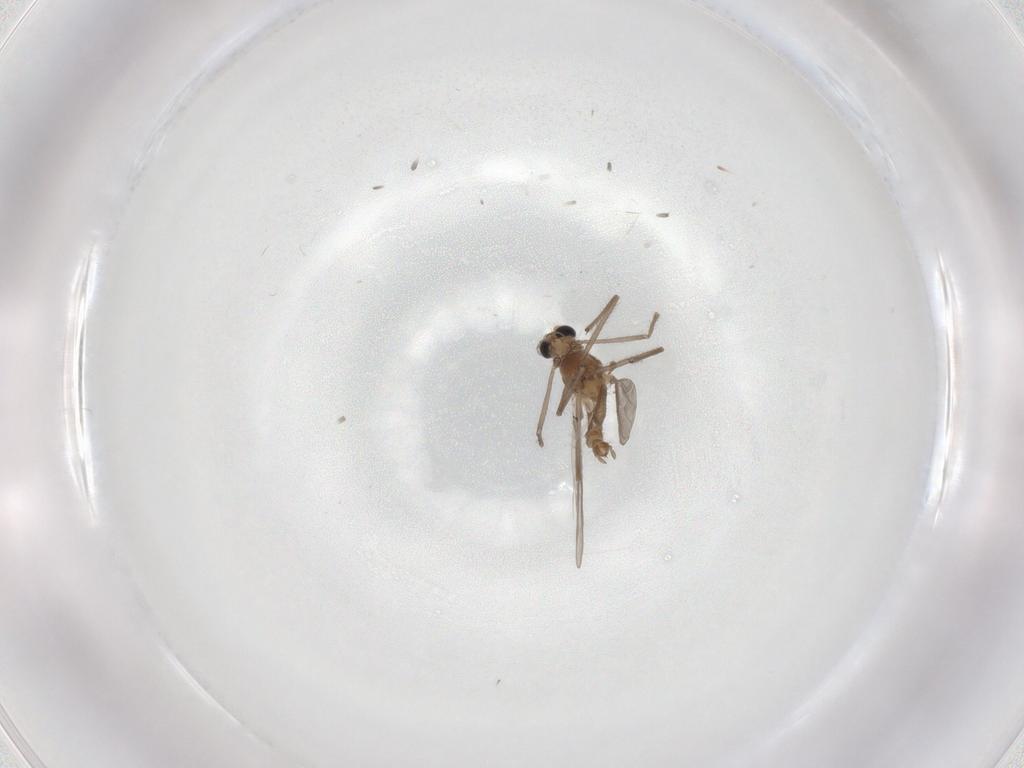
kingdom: Animalia
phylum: Arthropoda
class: Insecta
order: Diptera
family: Chironomidae
